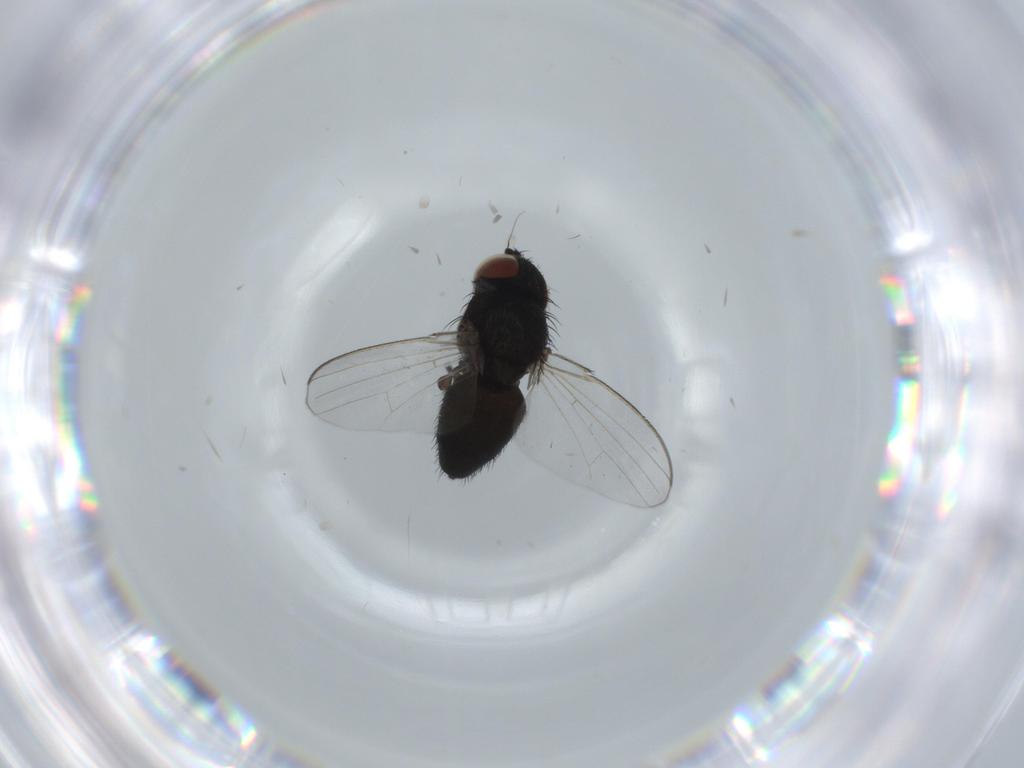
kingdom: Animalia
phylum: Arthropoda
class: Insecta
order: Diptera
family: Milichiidae
